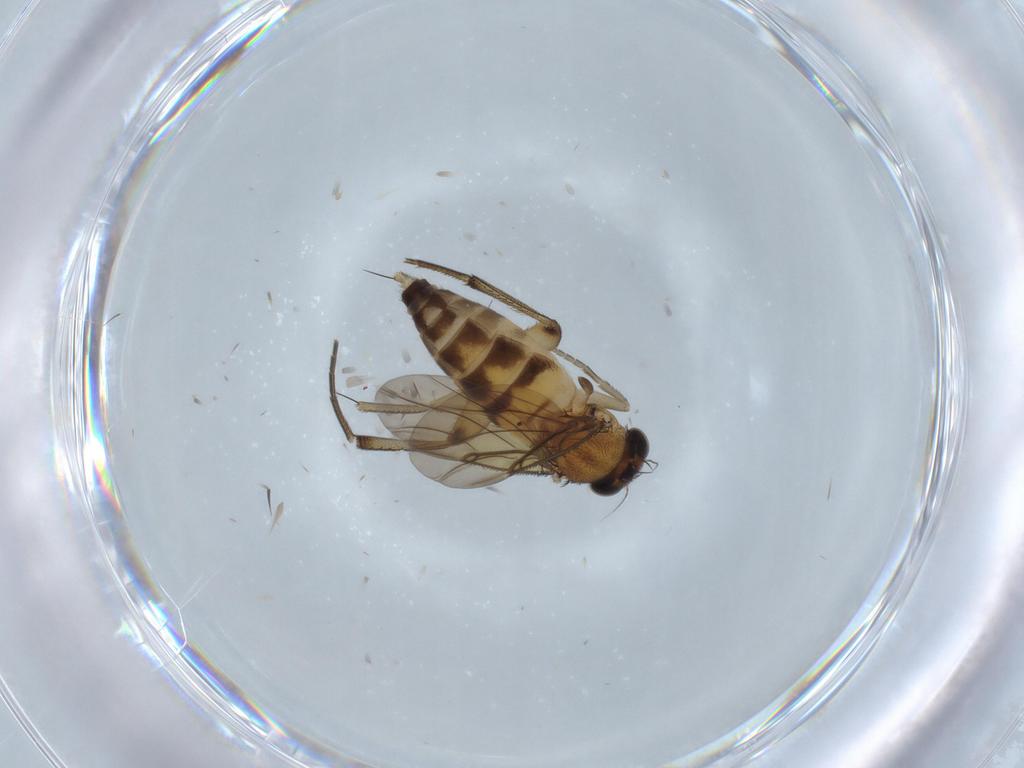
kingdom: Animalia
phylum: Arthropoda
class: Insecta
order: Diptera
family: Phoridae
